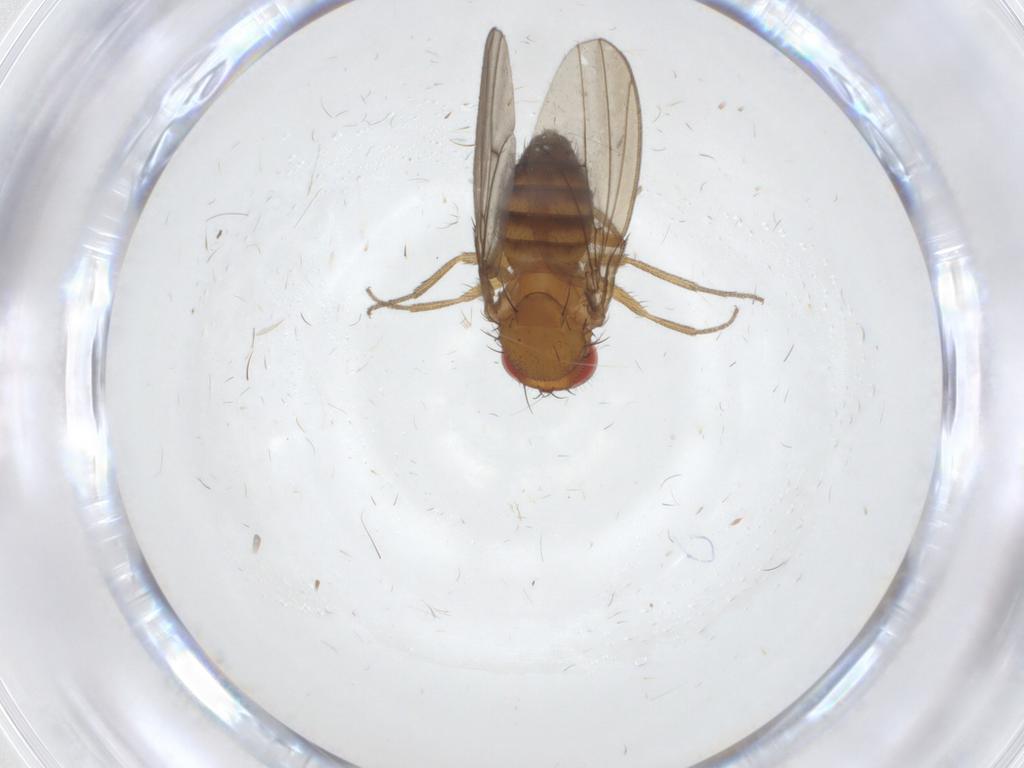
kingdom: Animalia
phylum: Arthropoda
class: Insecta
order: Diptera
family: Drosophilidae
